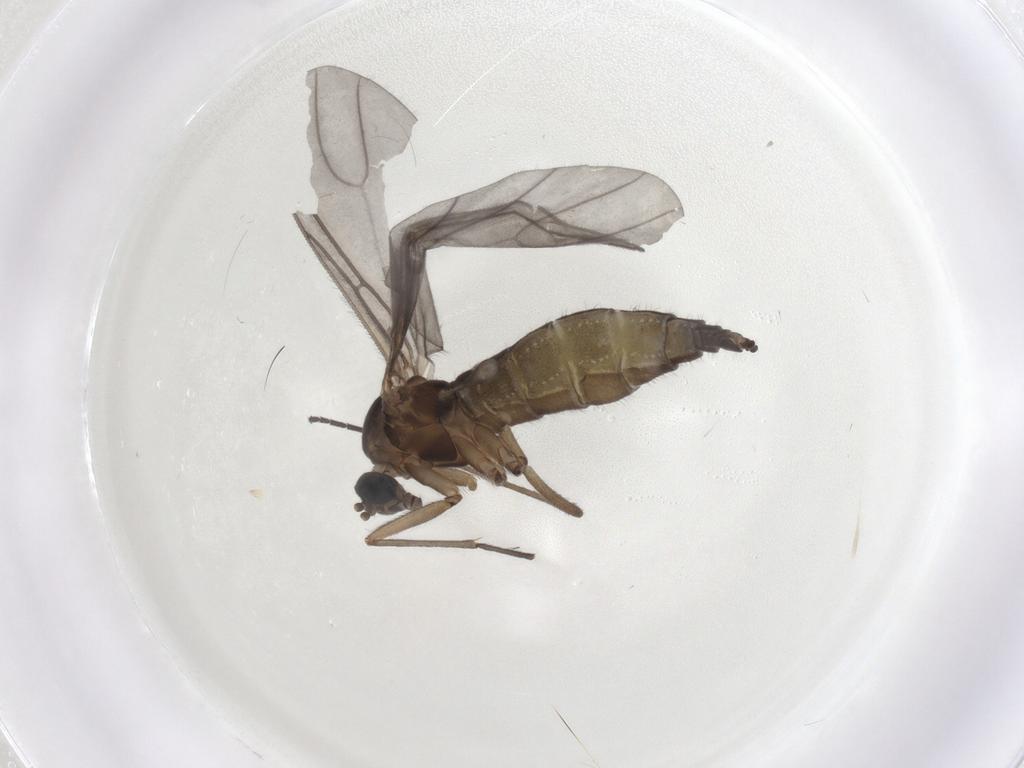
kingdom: Animalia
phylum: Arthropoda
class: Insecta
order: Diptera
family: Sciaridae
